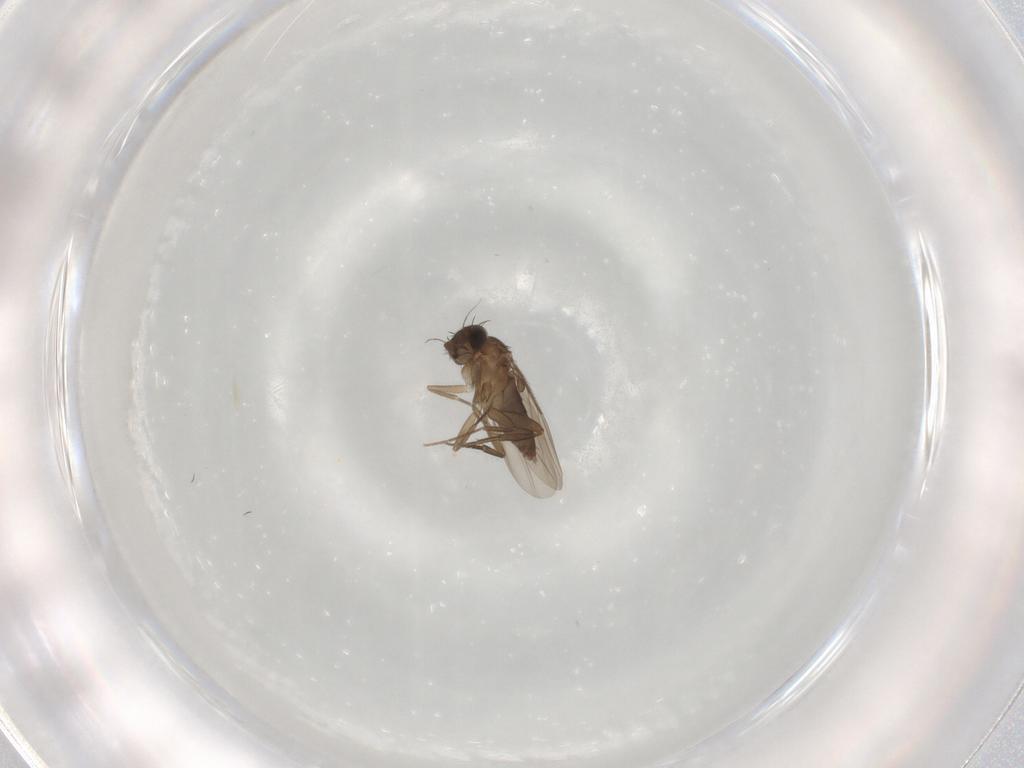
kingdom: Animalia
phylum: Arthropoda
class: Insecta
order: Diptera
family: Phoridae
